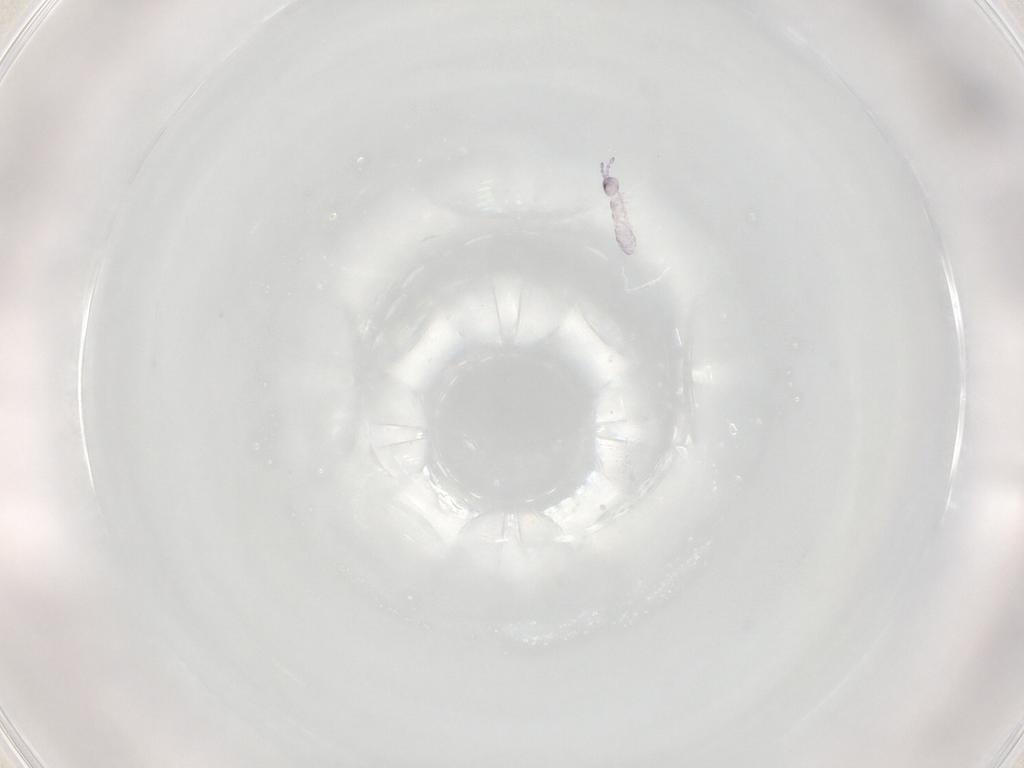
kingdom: Animalia
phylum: Arthropoda
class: Collembola
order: Entomobryomorpha
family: Isotomidae
